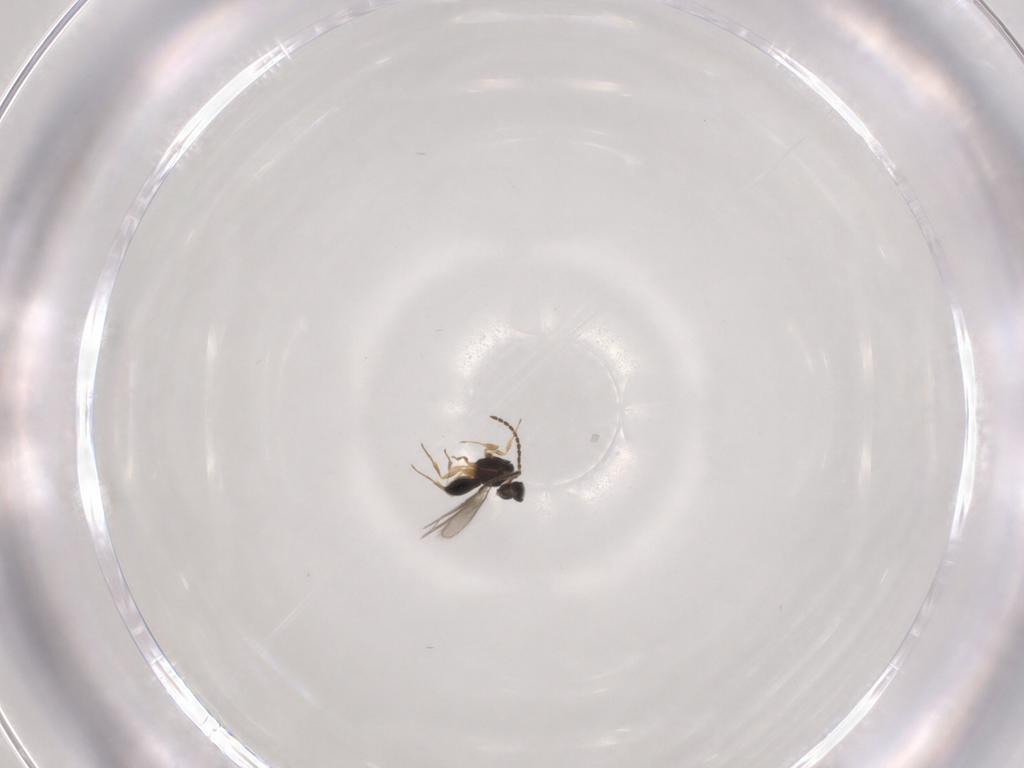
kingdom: Animalia
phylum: Arthropoda
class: Insecta
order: Hymenoptera
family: Scelionidae
